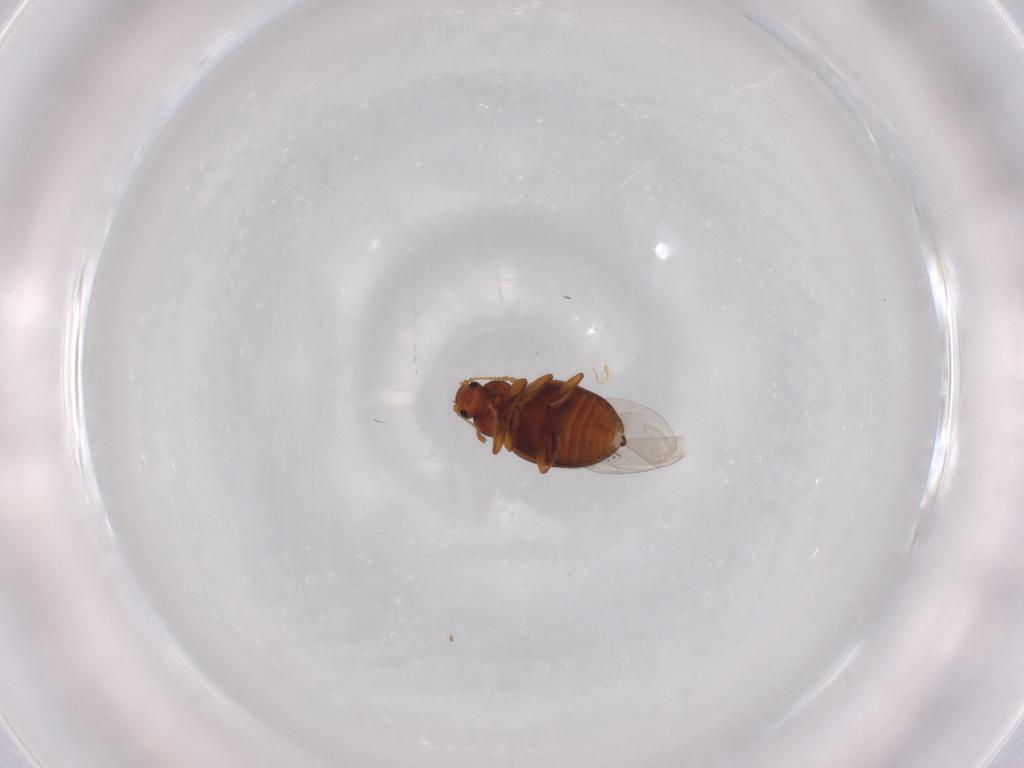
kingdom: Animalia
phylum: Arthropoda
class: Insecta
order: Coleoptera
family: Latridiidae
